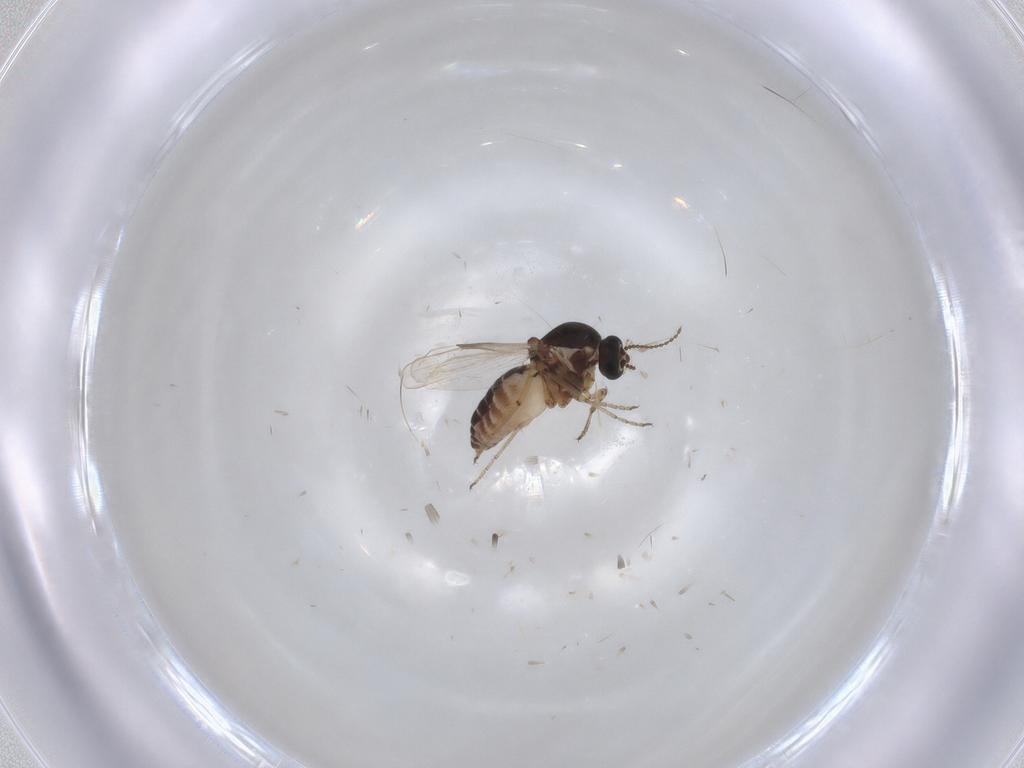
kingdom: Animalia
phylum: Arthropoda
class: Insecta
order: Diptera
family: Ceratopogonidae
